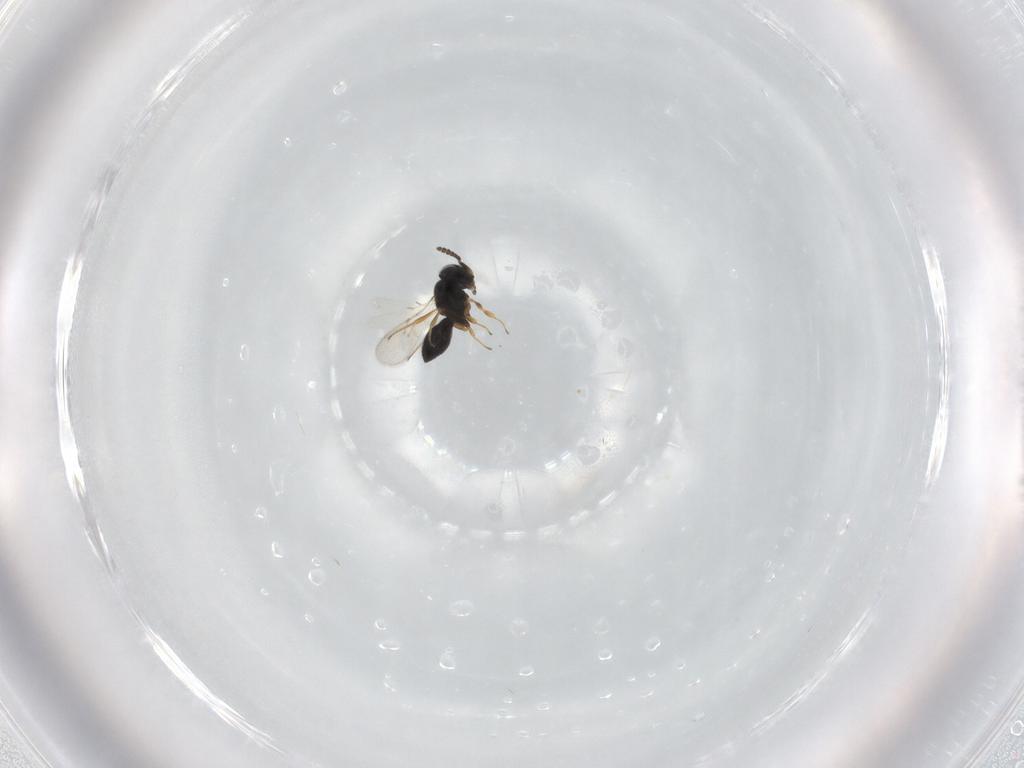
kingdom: Animalia
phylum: Arthropoda
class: Insecta
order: Hymenoptera
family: Scelionidae
